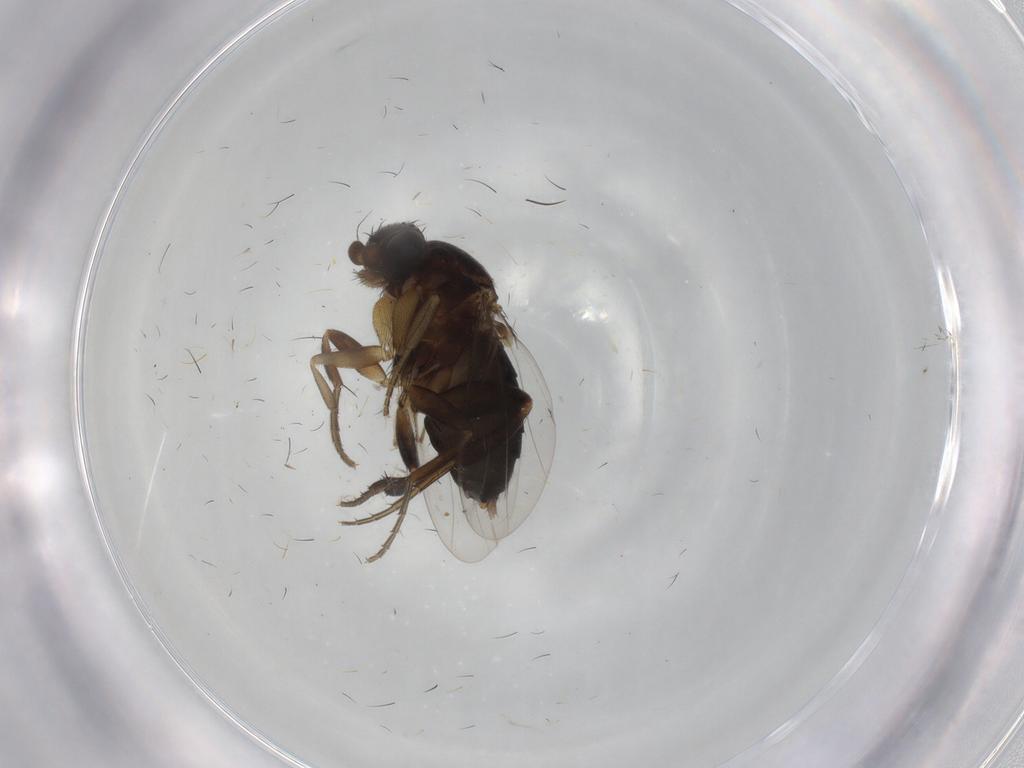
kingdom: Animalia
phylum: Arthropoda
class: Insecta
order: Diptera
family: Phoridae
